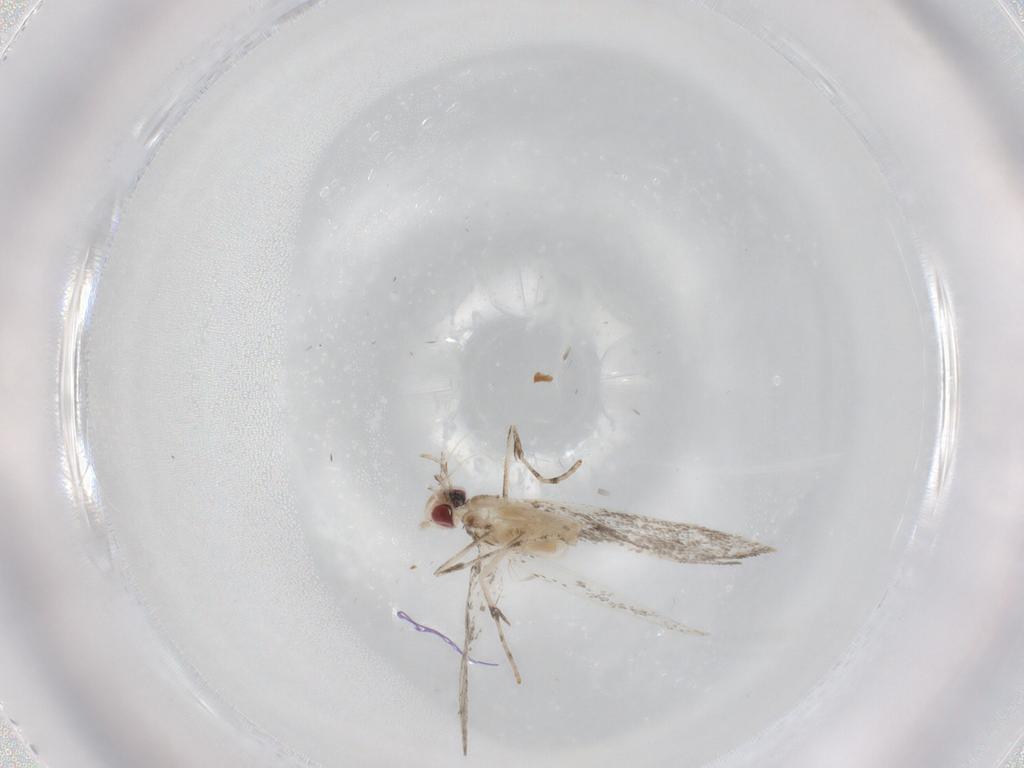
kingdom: Animalia
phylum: Arthropoda
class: Insecta
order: Lepidoptera
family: Gracillariidae
